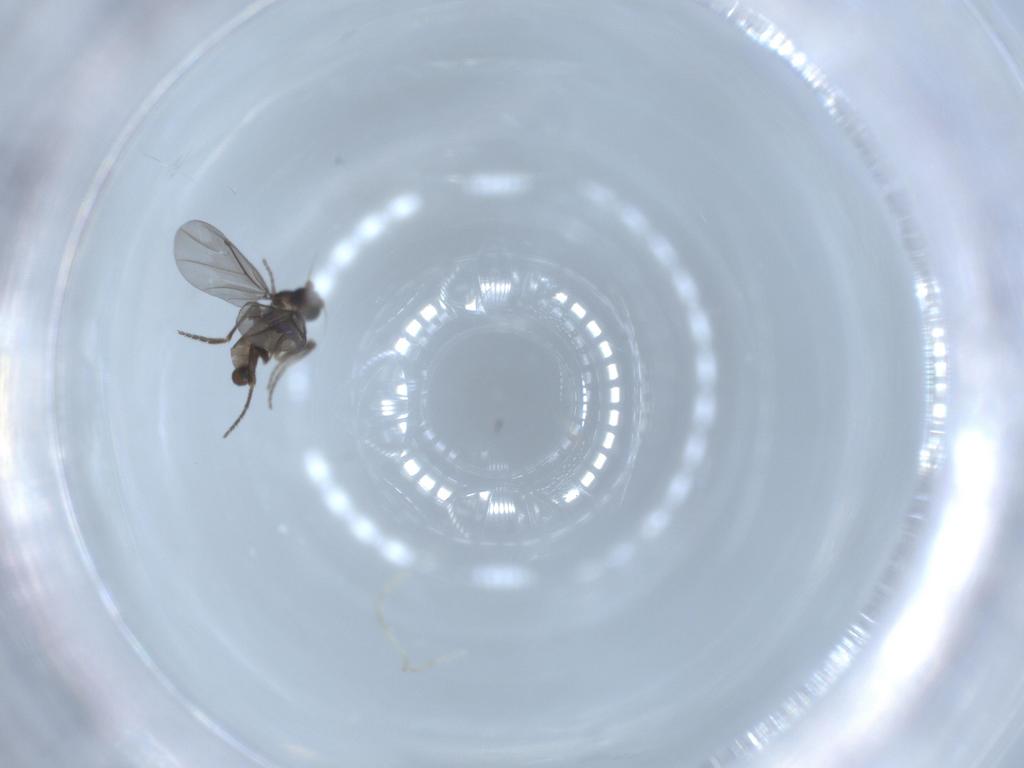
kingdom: Animalia
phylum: Arthropoda
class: Insecta
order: Diptera
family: Phoridae
